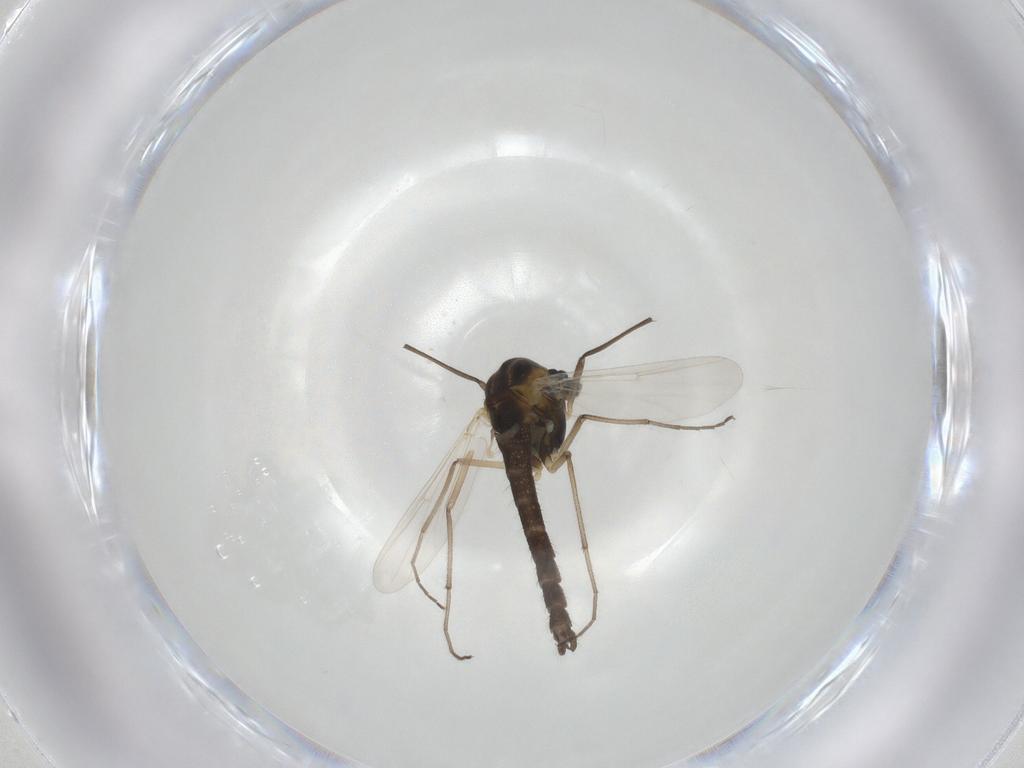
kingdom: Animalia
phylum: Arthropoda
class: Insecta
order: Diptera
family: Chironomidae
